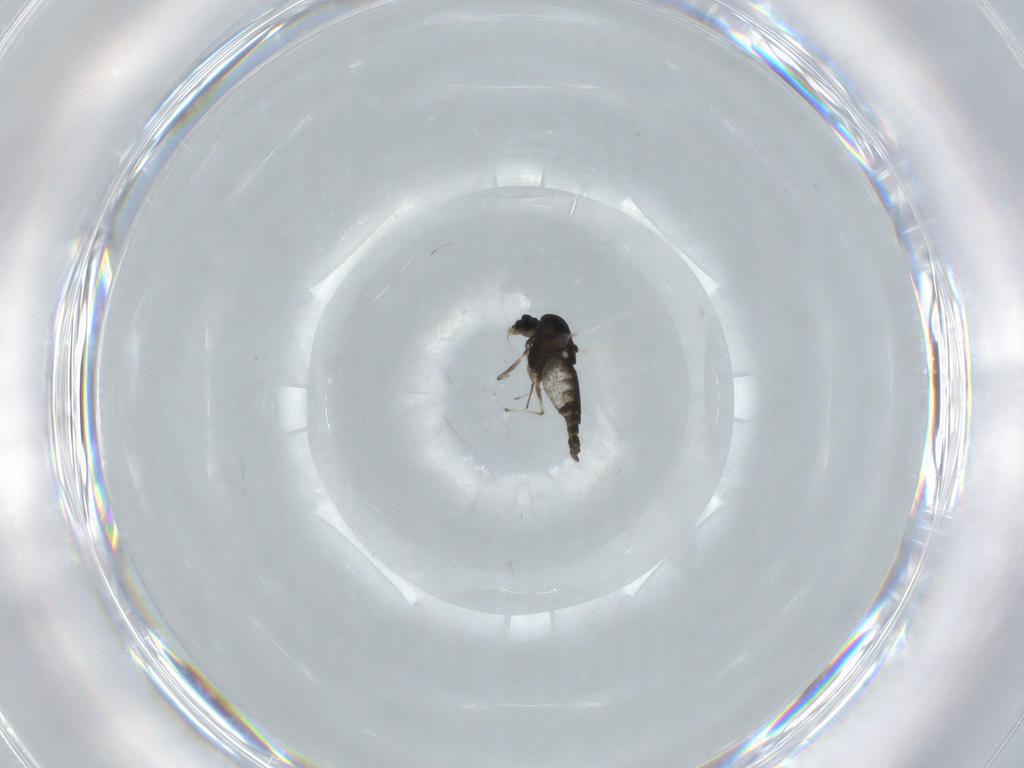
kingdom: Animalia
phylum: Arthropoda
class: Insecta
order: Diptera
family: Chironomidae
